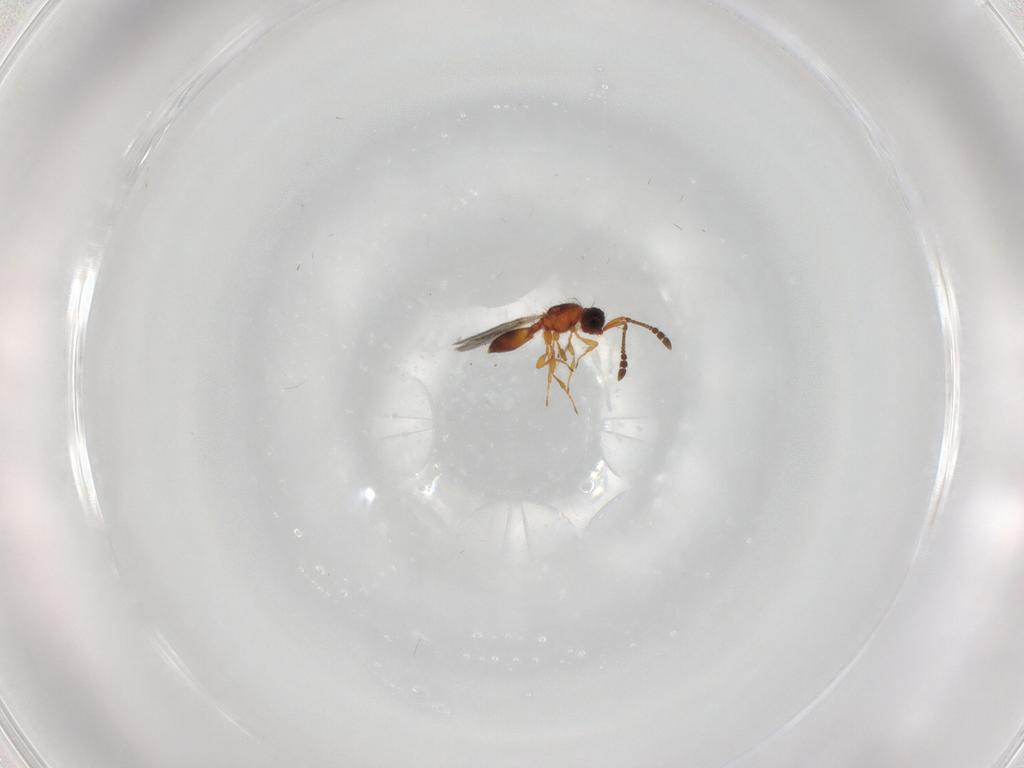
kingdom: Animalia
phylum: Arthropoda
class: Insecta
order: Hymenoptera
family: Diapriidae
